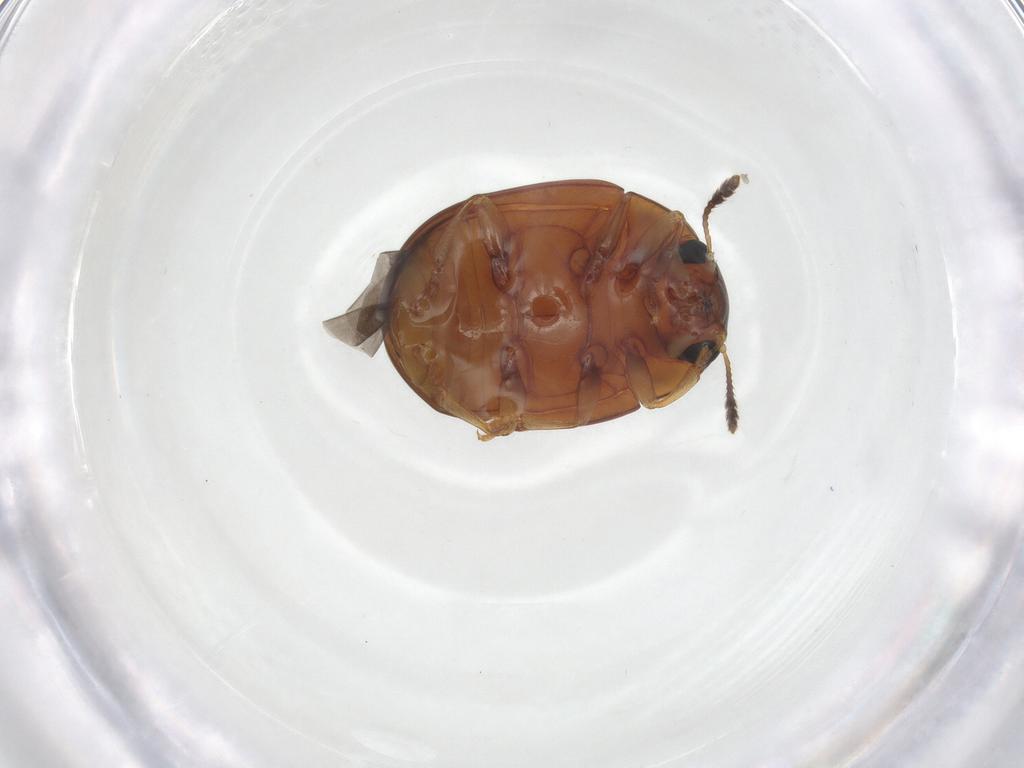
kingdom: Animalia
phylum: Arthropoda
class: Insecta
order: Coleoptera
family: Erotylidae
